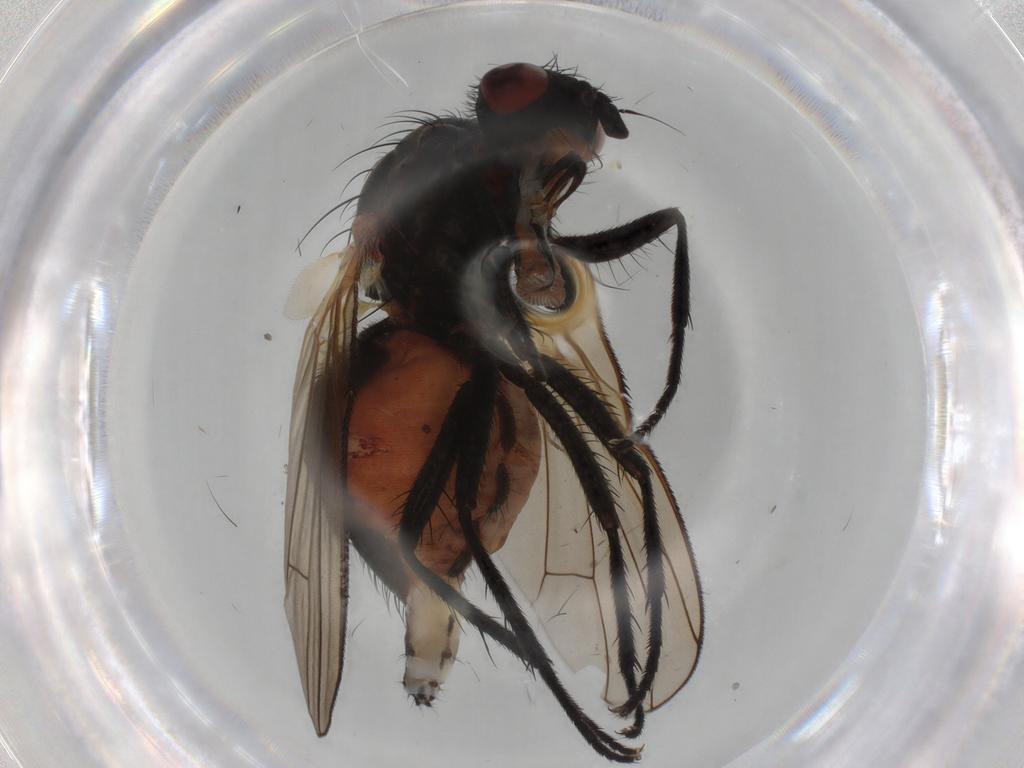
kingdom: Animalia
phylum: Arthropoda
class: Insecta
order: Diptera
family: Anthomyiidae
